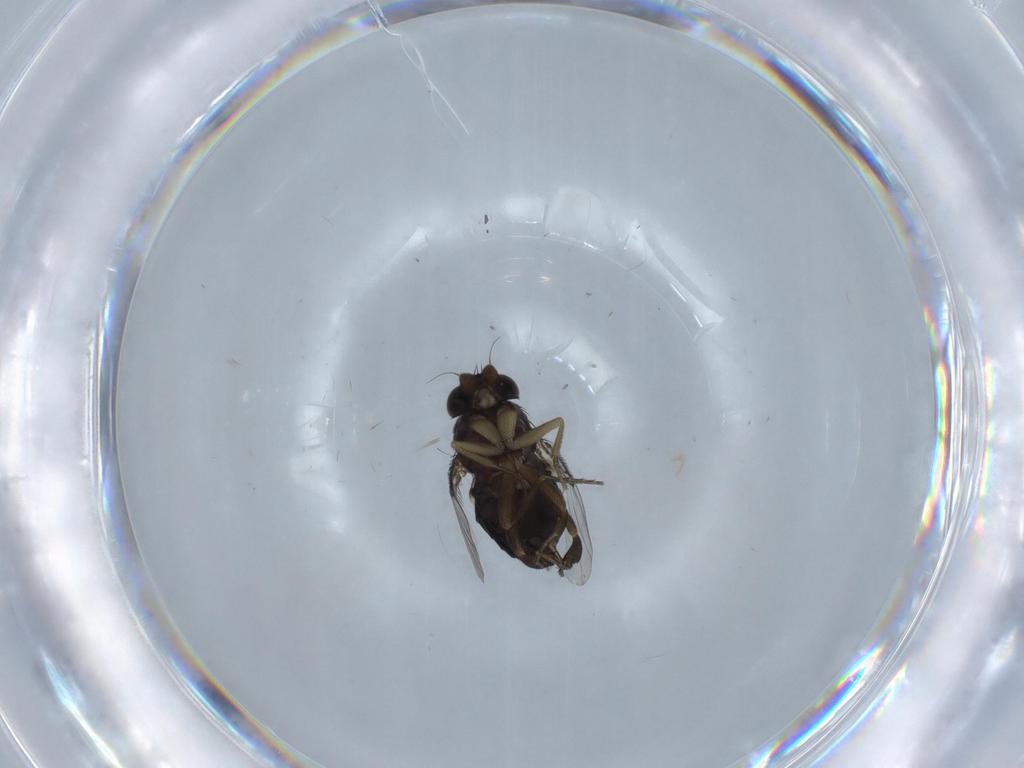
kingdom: Animalia
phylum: Arthropoda
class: Insecta
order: Diptera
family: Phoridae
